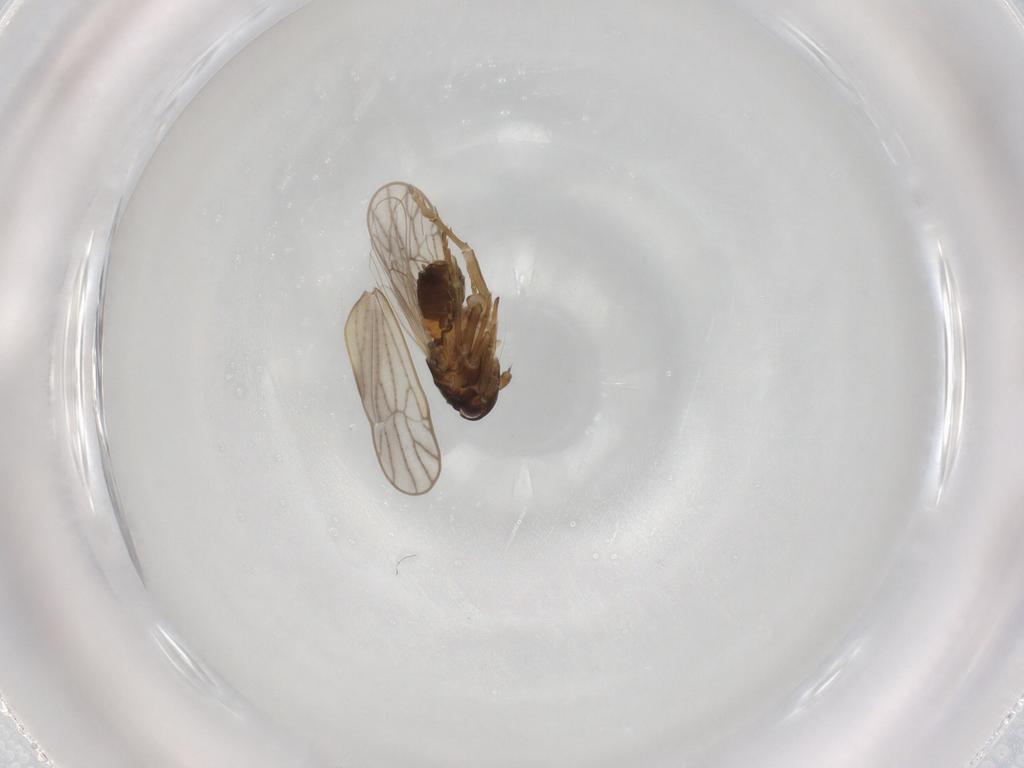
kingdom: Animalia
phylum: Arthropoda
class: Insecta
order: Hemiptera
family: Delphacidae
